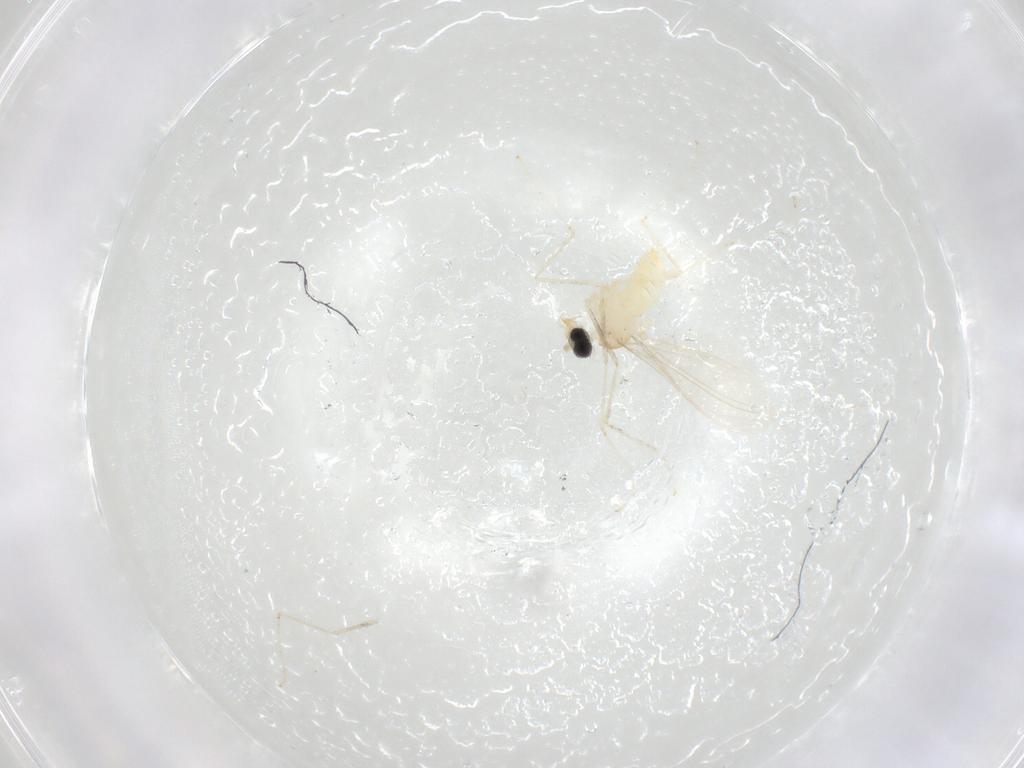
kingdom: Animalia
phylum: Arthropoda
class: Insecta
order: Diptera
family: Cecidomyiidae
